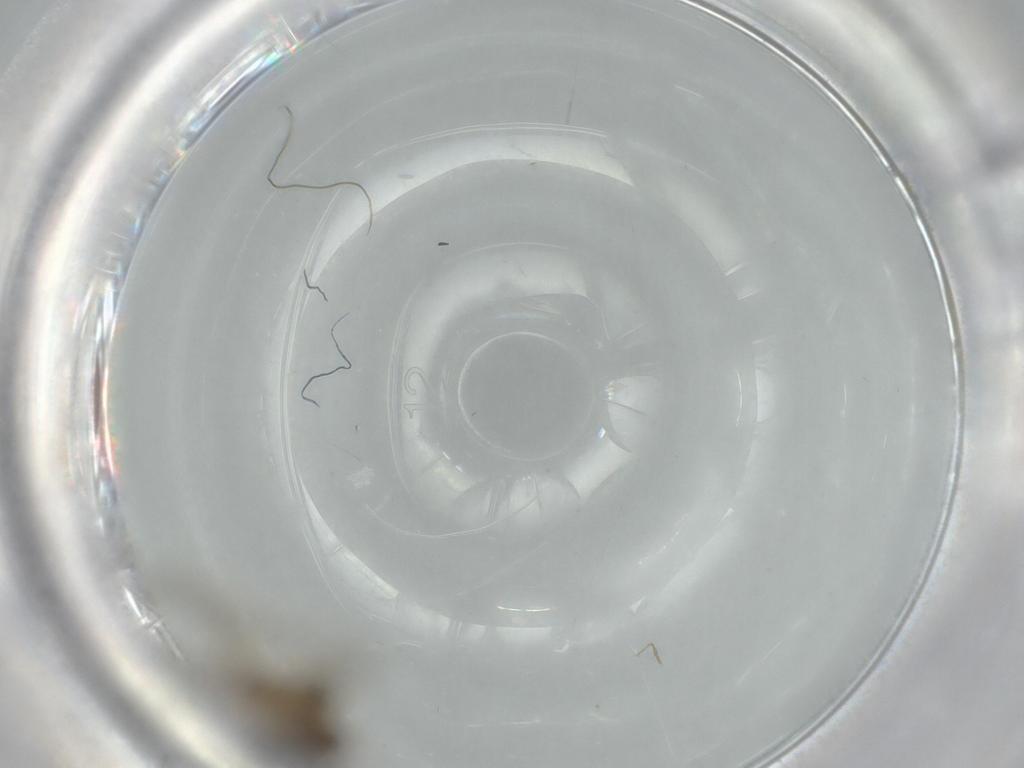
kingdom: Animalia
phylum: Arthropoda
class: Insecta
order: Diptera
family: Cecidomyiidae
